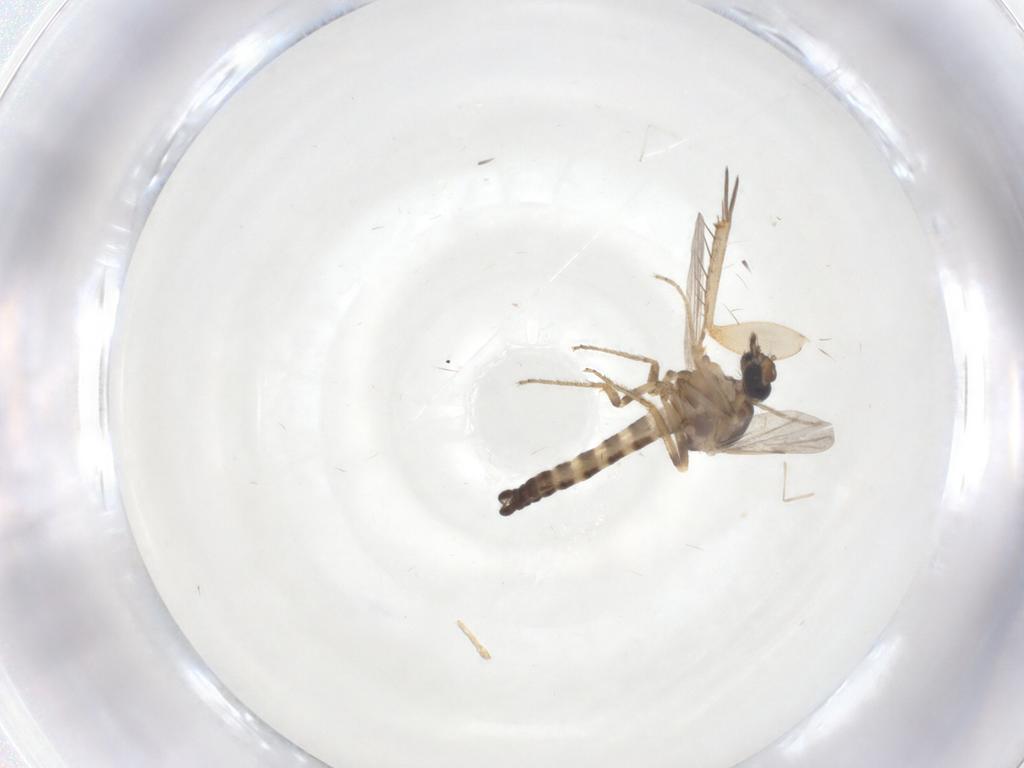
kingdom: Animalia
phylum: Arthropoda
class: Insecta
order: Diptera
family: Ceratopogonidae
